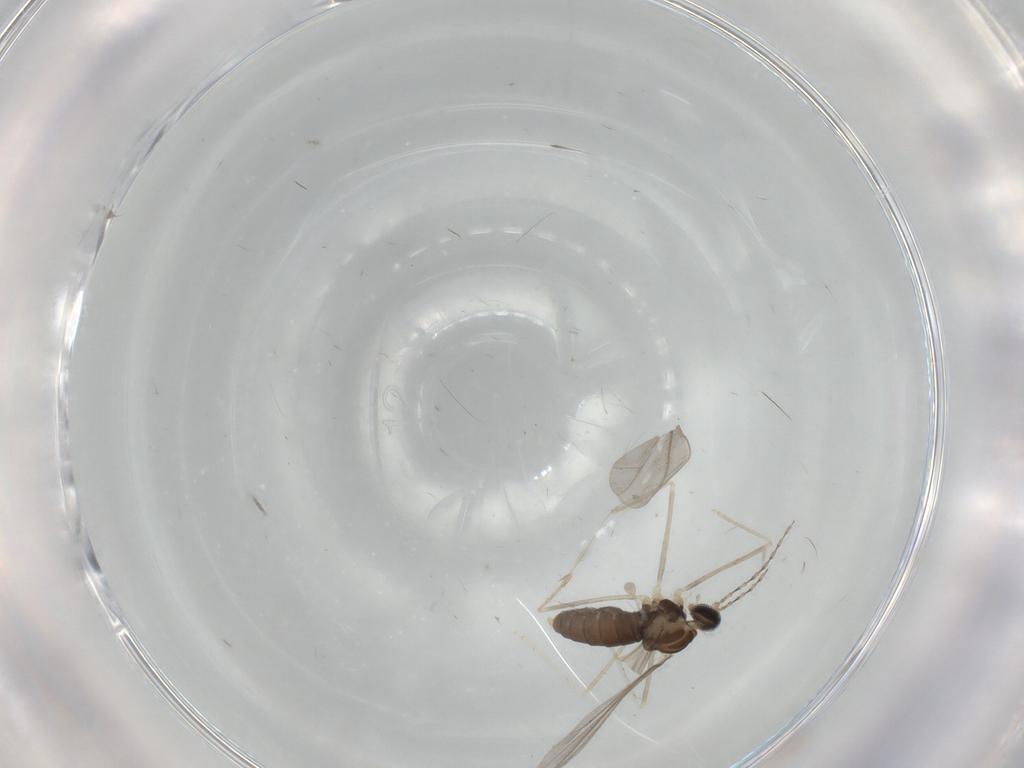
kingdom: Animalia
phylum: Arthropoda
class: Insecta
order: Diptera
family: Cecidomyiidae
